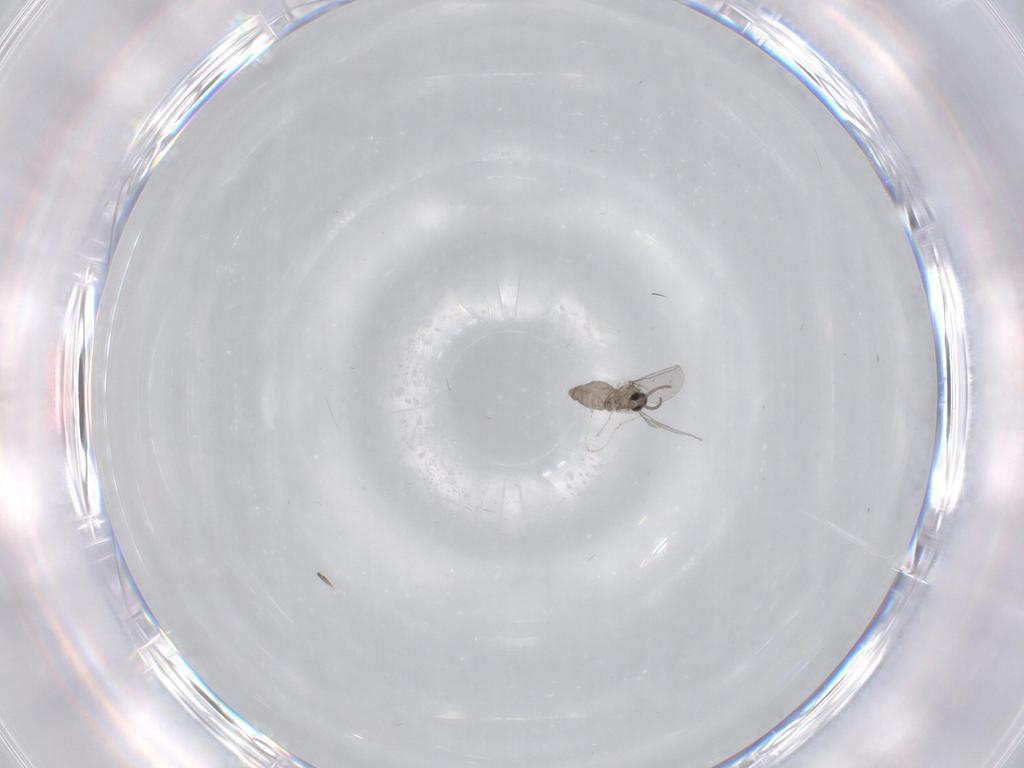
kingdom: Animalia
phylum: Arthropoda
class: Insecta
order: Diptera
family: Cecidomyiidae
